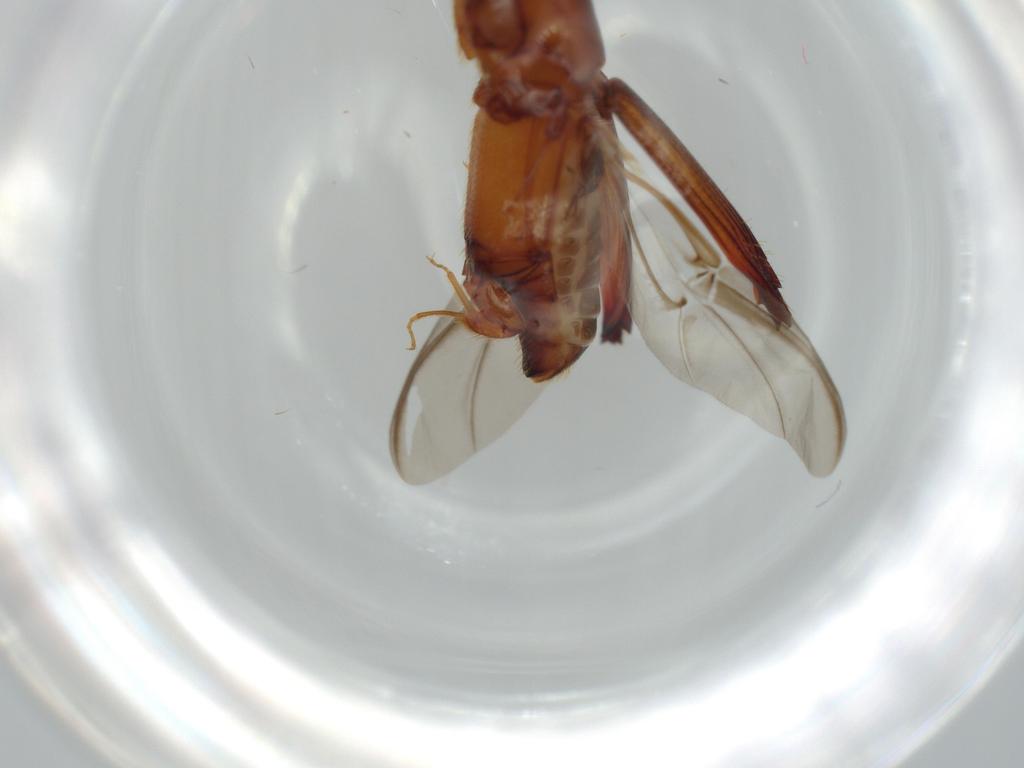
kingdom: Animalia
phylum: Arthropoda
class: Insecta
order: Coleoptera
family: Curculionidae
